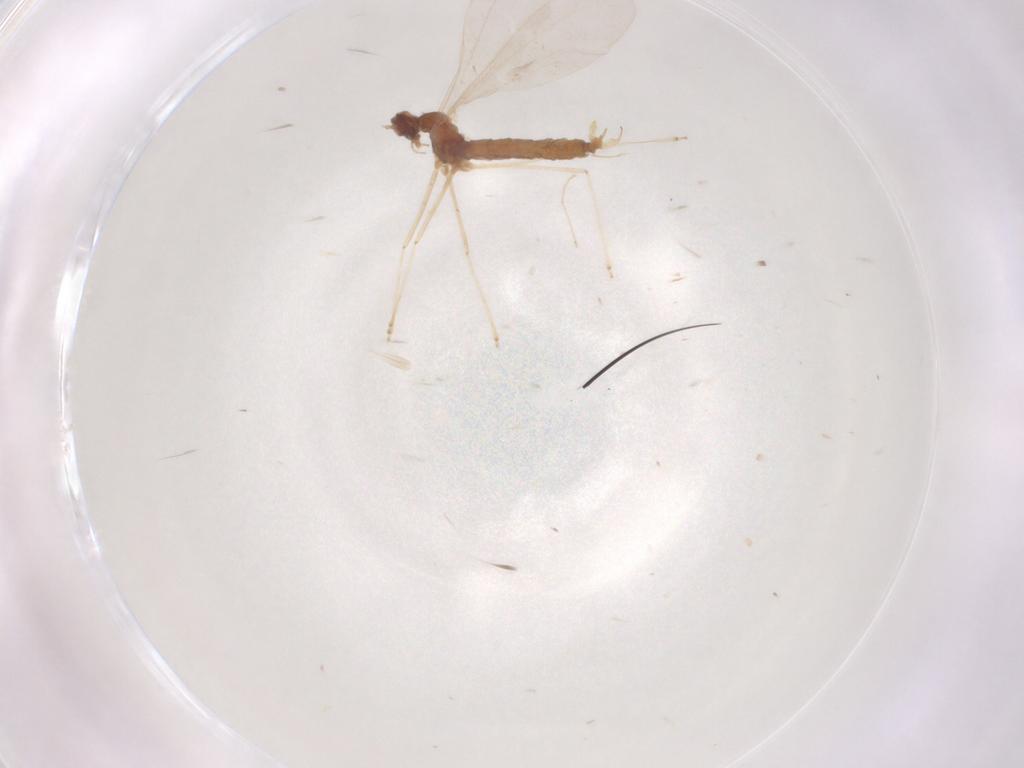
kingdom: Animalia
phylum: Arthropoda
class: Insecta
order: Diptera
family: Cecidomyiidae
